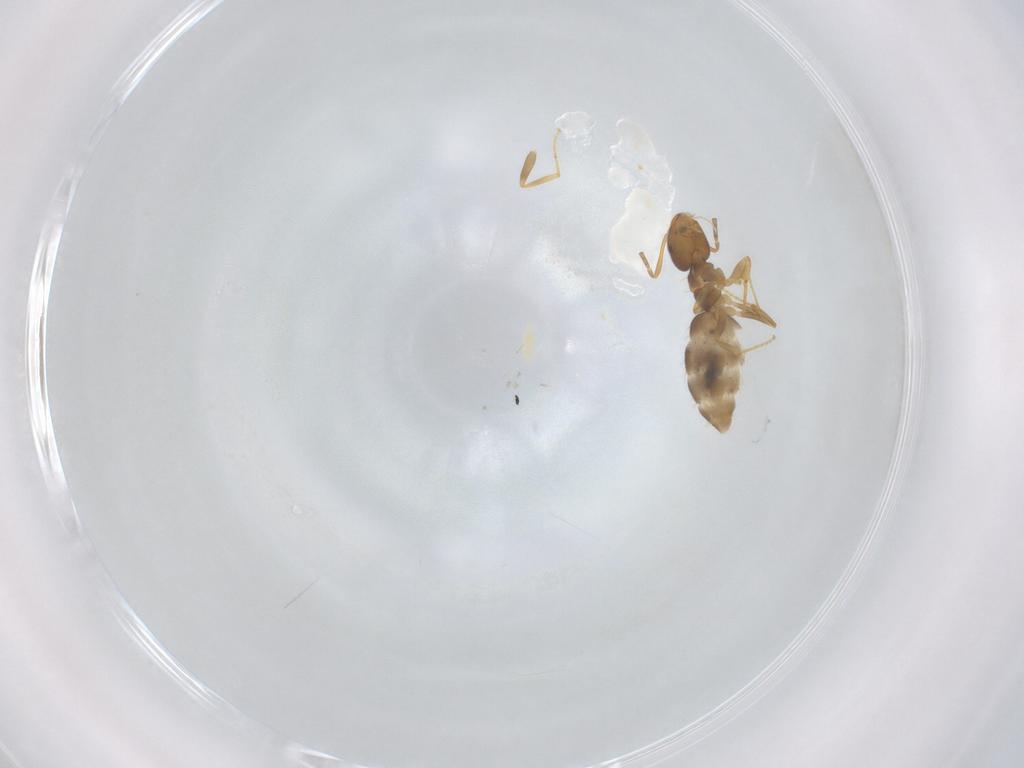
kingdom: Animalia
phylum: Arthropoda
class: Insecta
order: Hymenoptera
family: Formicidae
